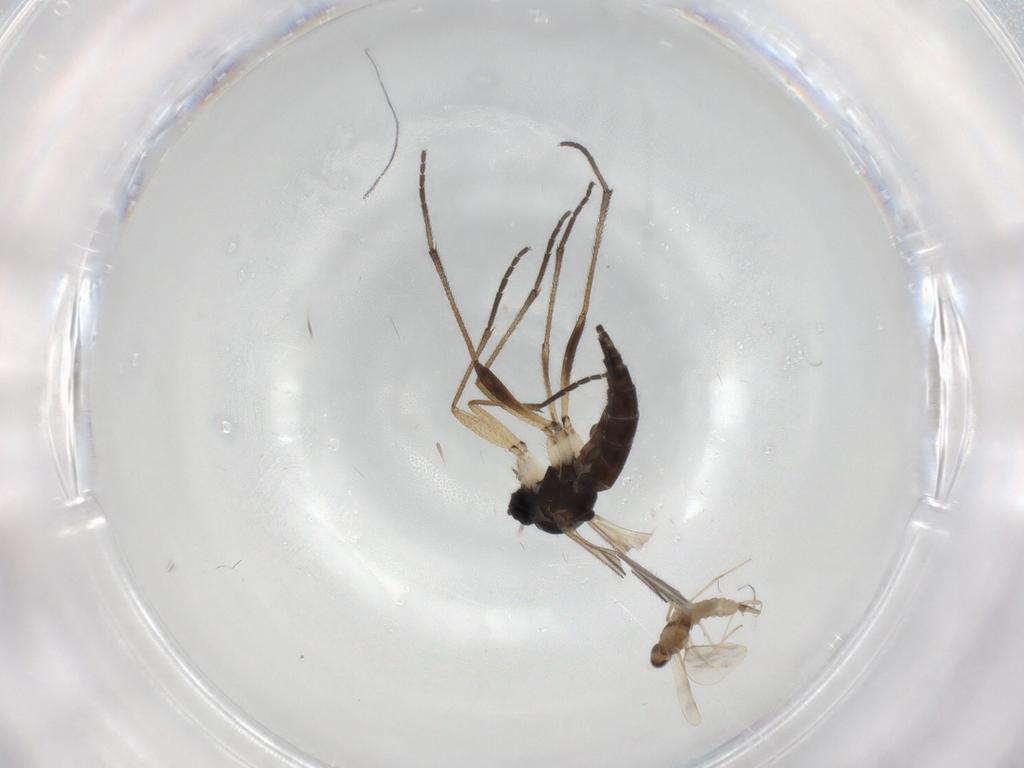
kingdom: Animalia
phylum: Arthropoda
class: Insecta
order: Diptera
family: Sciaridae
